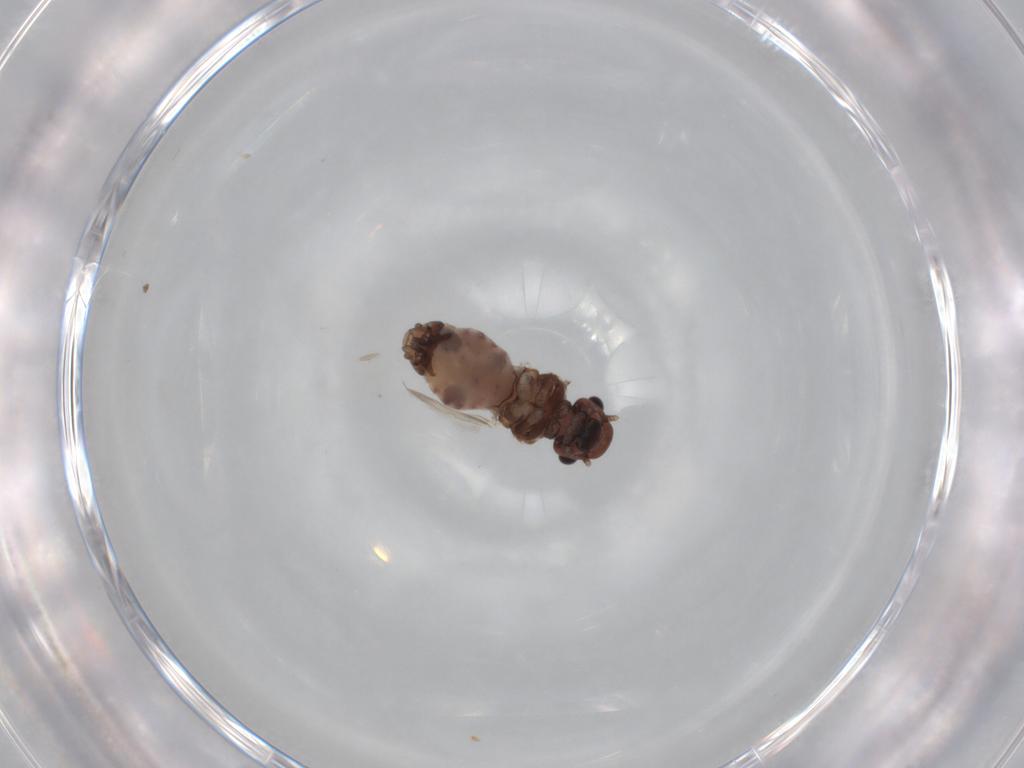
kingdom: Animalia
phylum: Arthropoda
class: Insecta
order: Psocodea
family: Peripsocidae
